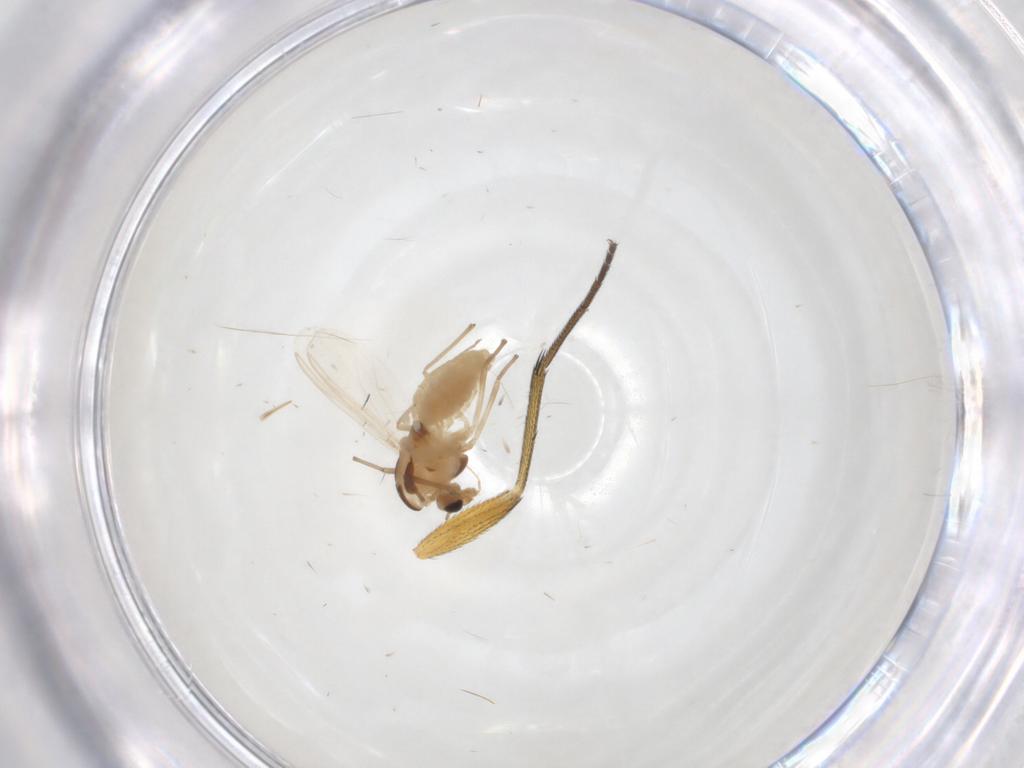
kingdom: Animalia
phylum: Arthropoda
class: Insecta
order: Diptera
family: Chironomidae
